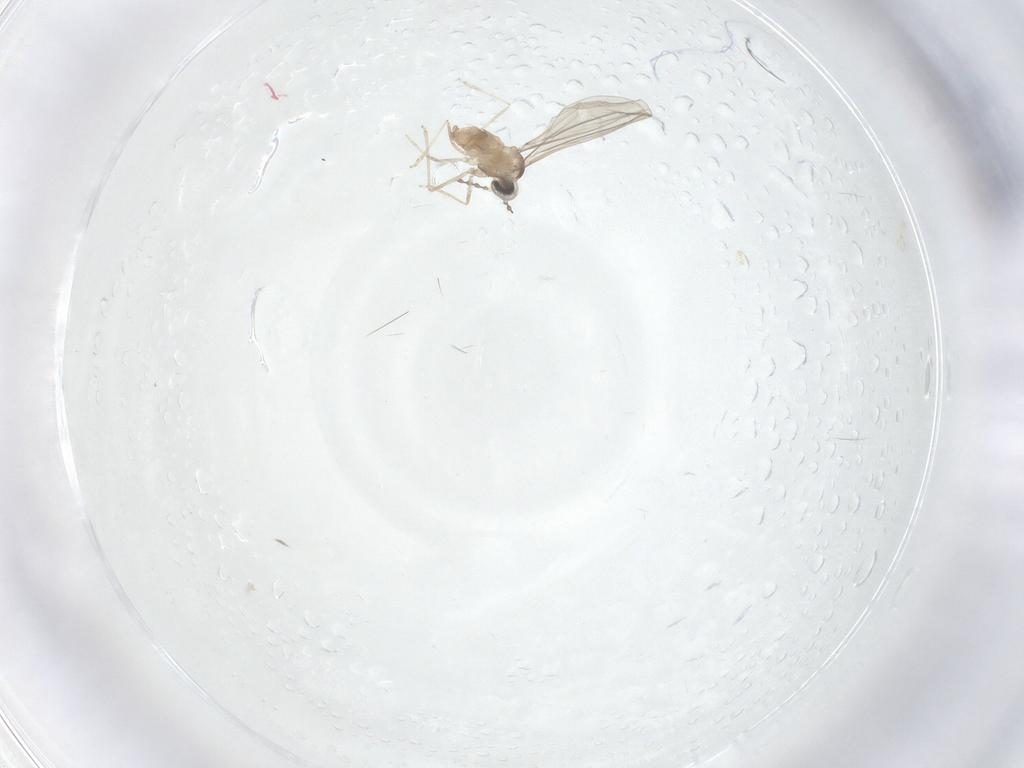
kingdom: Animalia
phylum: Arthropoda
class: Insecta
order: Diptera
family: Cecidomyiidae
